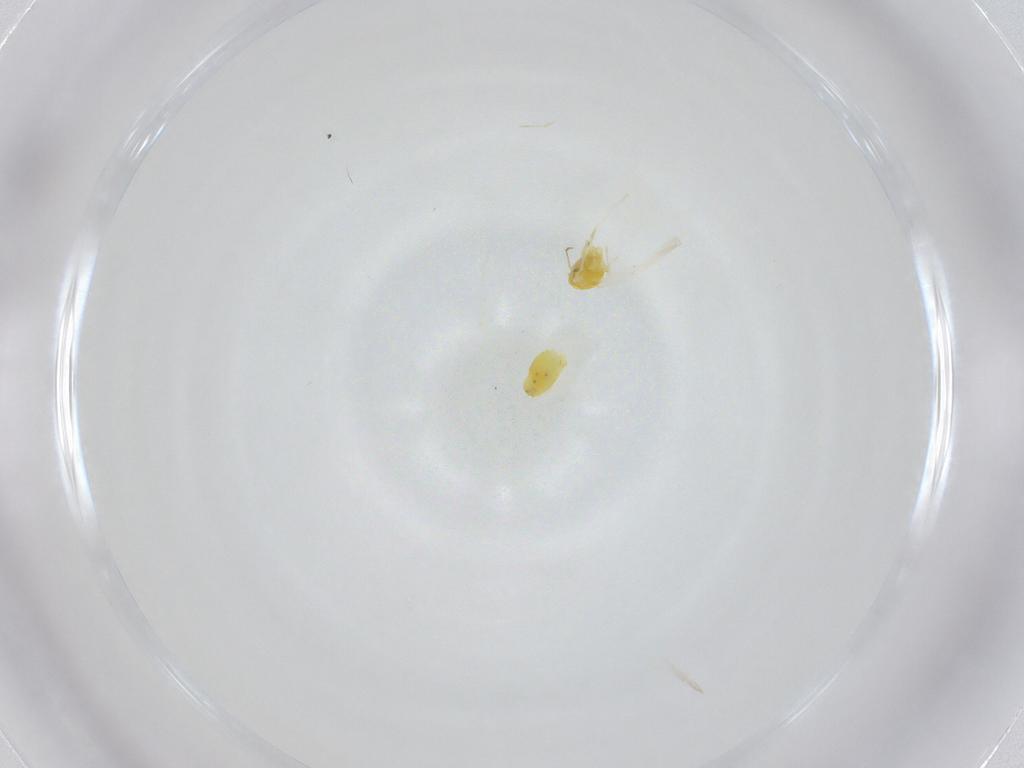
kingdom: Animalia
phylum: Arthropoda
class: Insecta
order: Hemiptera
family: Aleyrodidae
